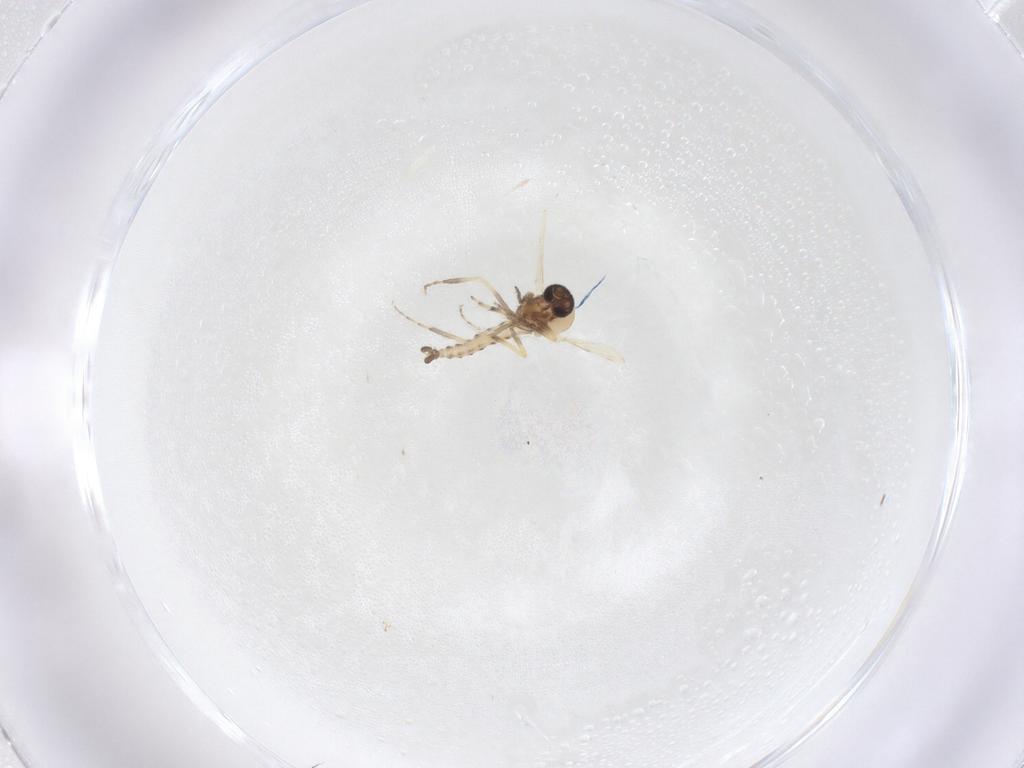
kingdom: Animalia
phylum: Arthropoda
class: Insecta
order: Diptera
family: Ceratopogonidae
